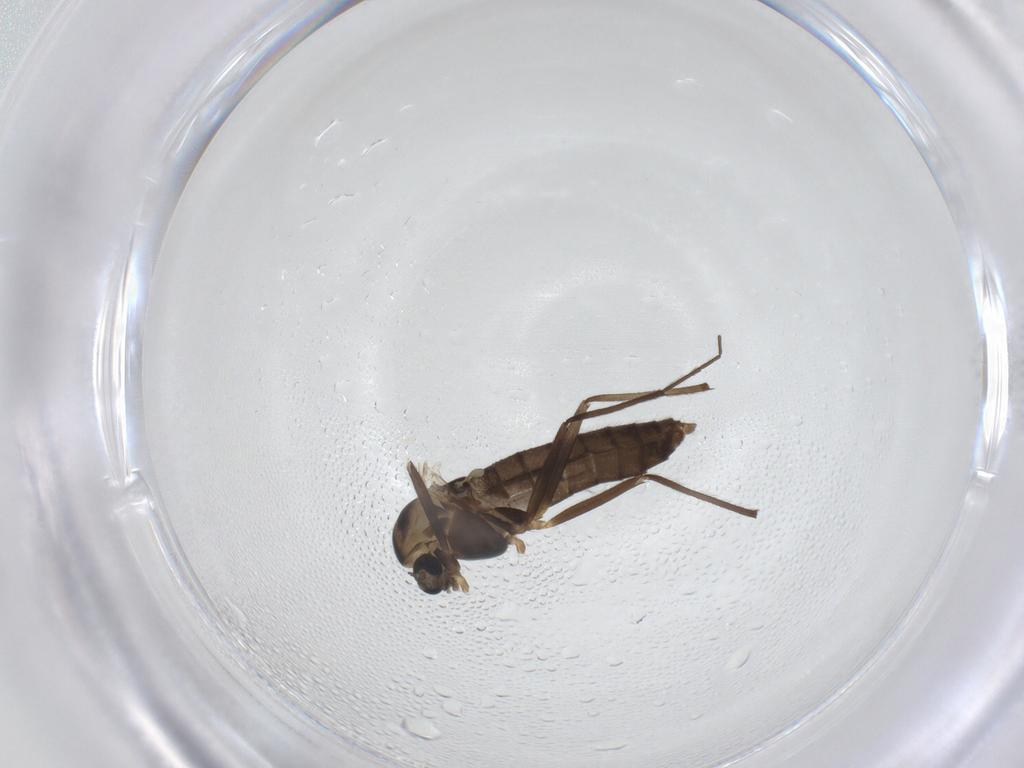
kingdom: Animalia
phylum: Arthropoda
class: Insecta
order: Diptera
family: Chironomidae
